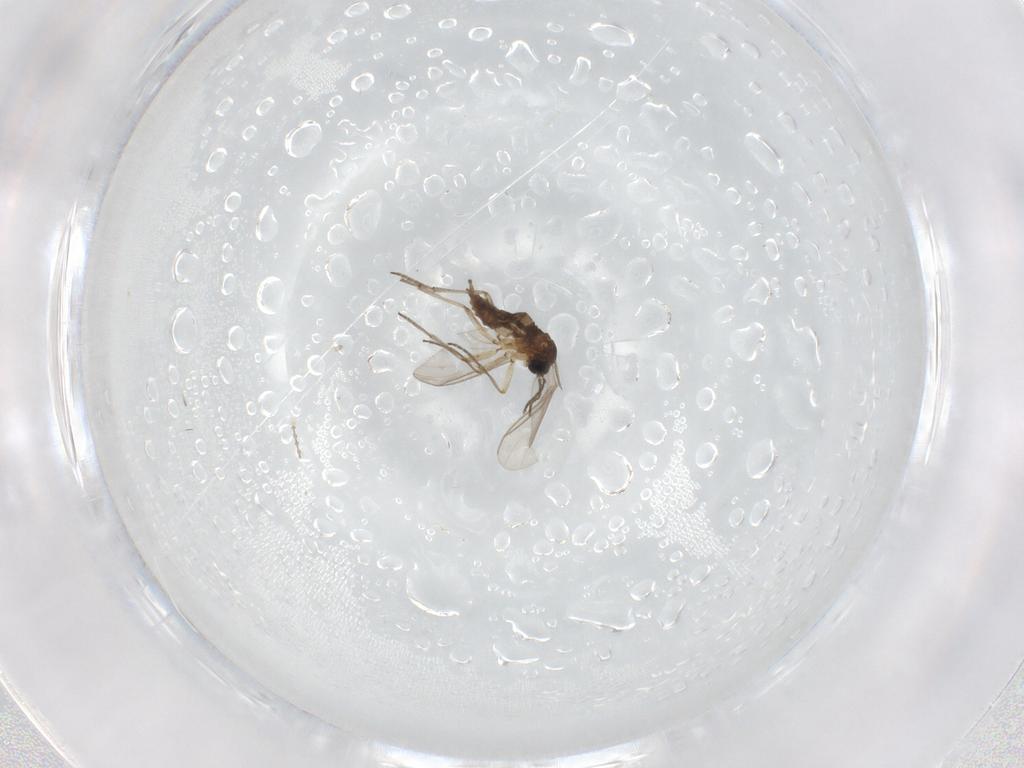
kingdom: Animalia
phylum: Arthropoda
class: Insecta
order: Diptera
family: Sciaridae
